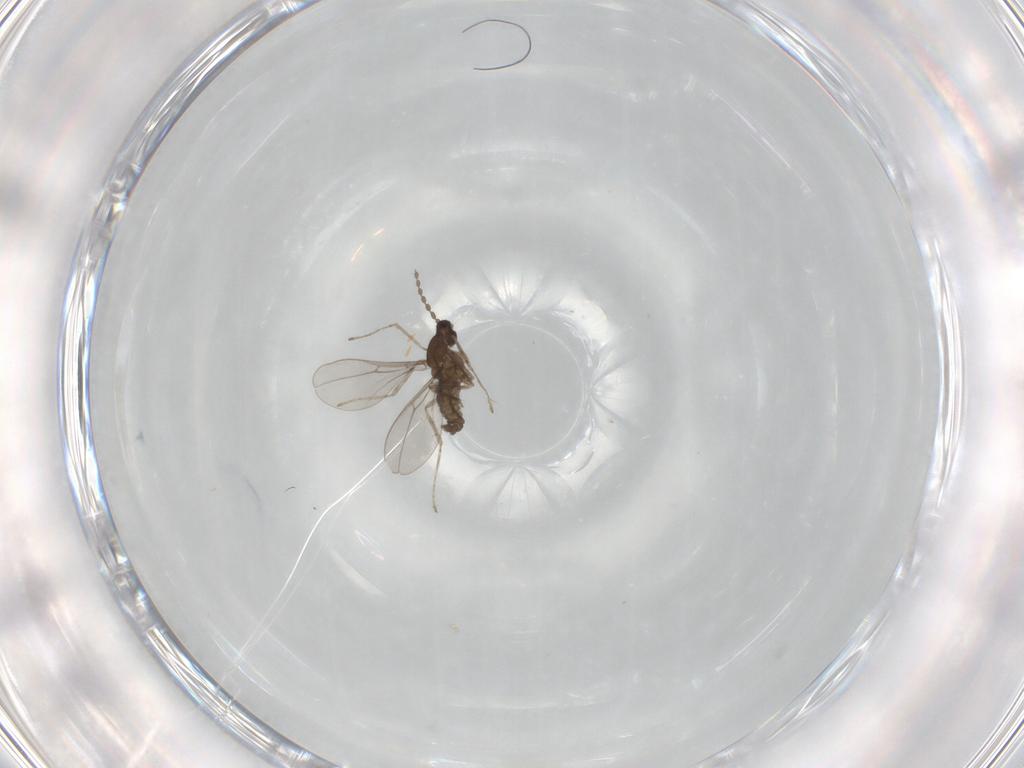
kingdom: Animalia
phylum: Arthropoda
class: Insecta
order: Diptera
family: Cecidomyiidae
